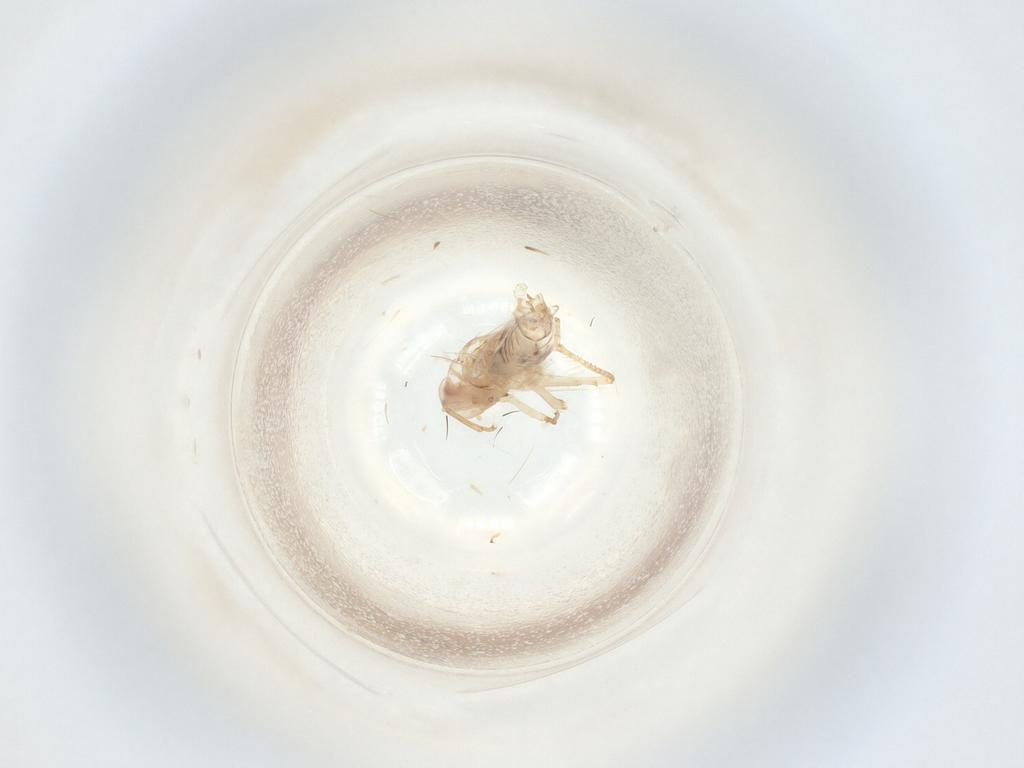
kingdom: Animalia
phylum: Arthropoda
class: Insecta
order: Hemiptera
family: Cicadellidae
